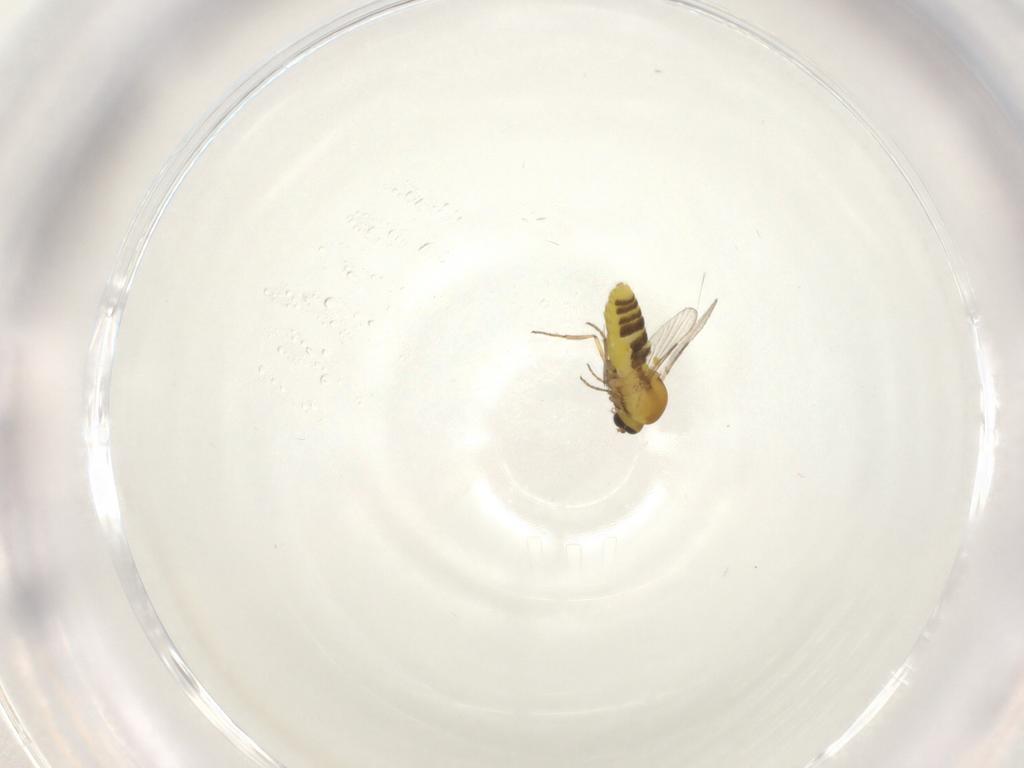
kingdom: Animalia
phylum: Arthropoda
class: Insecta
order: Diptera
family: Ceratopogonidae
